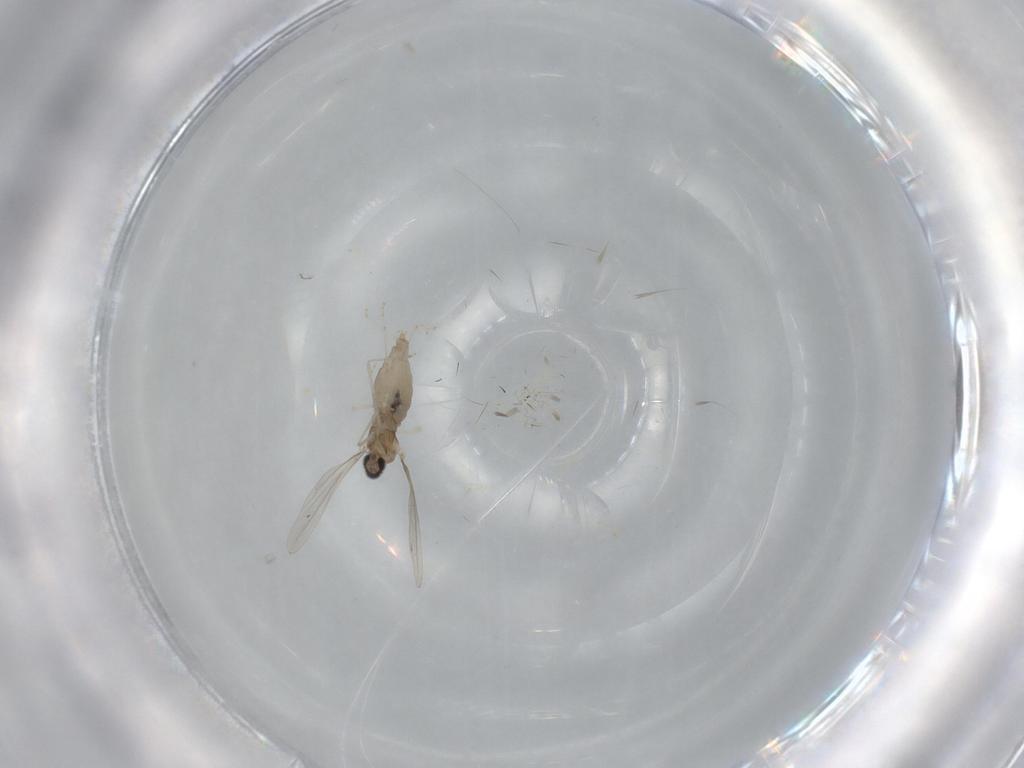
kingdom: Animalia
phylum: Arthropoda
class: Insecta
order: Diptera
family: Cecidomyiidae
